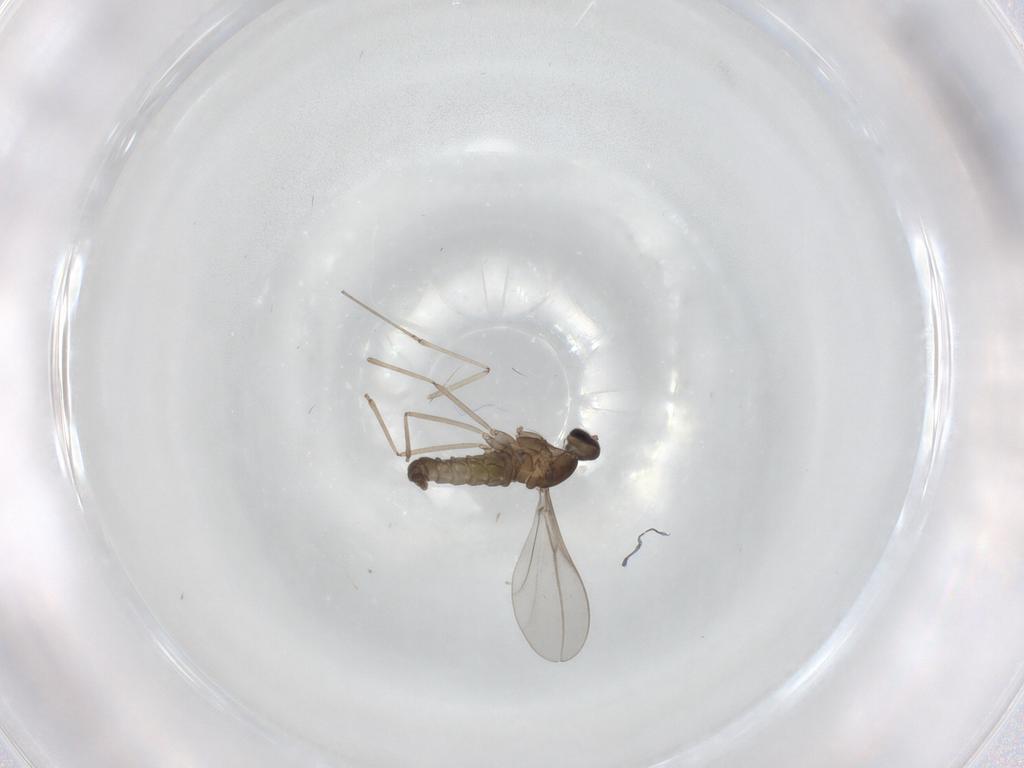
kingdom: Animalia
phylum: Arthropoda
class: Insecta
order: Diptera
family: Cecidomyiidae
